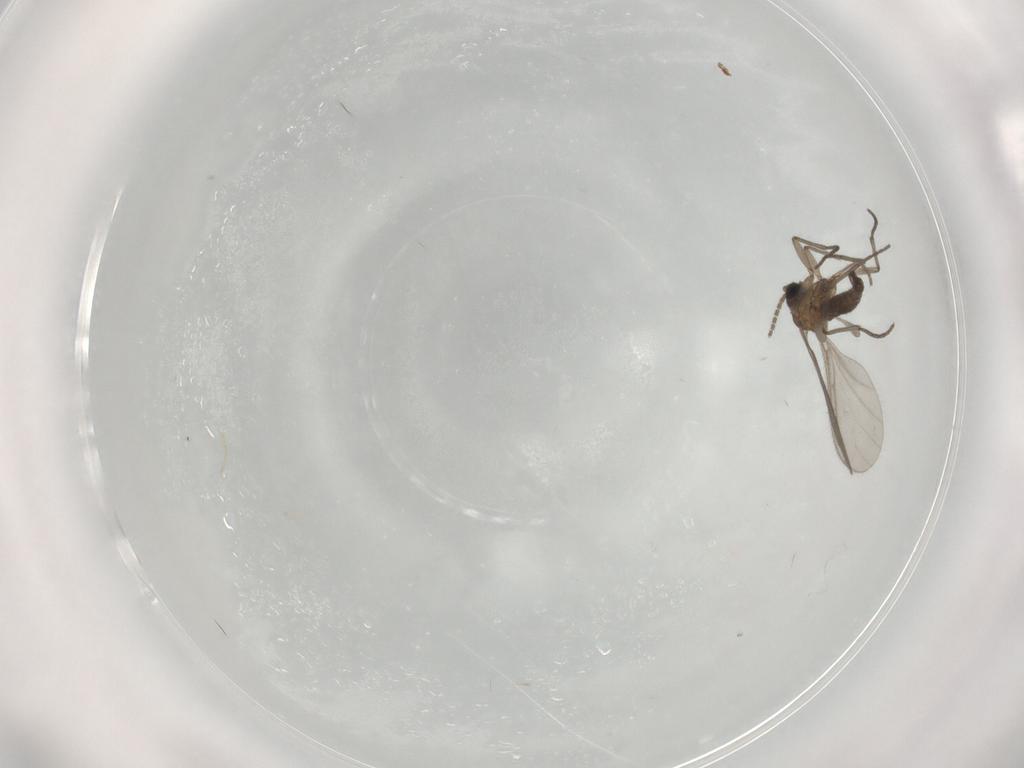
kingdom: Animalia
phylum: Arthropoda
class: Insecta
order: Diptera
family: Sciaridae
